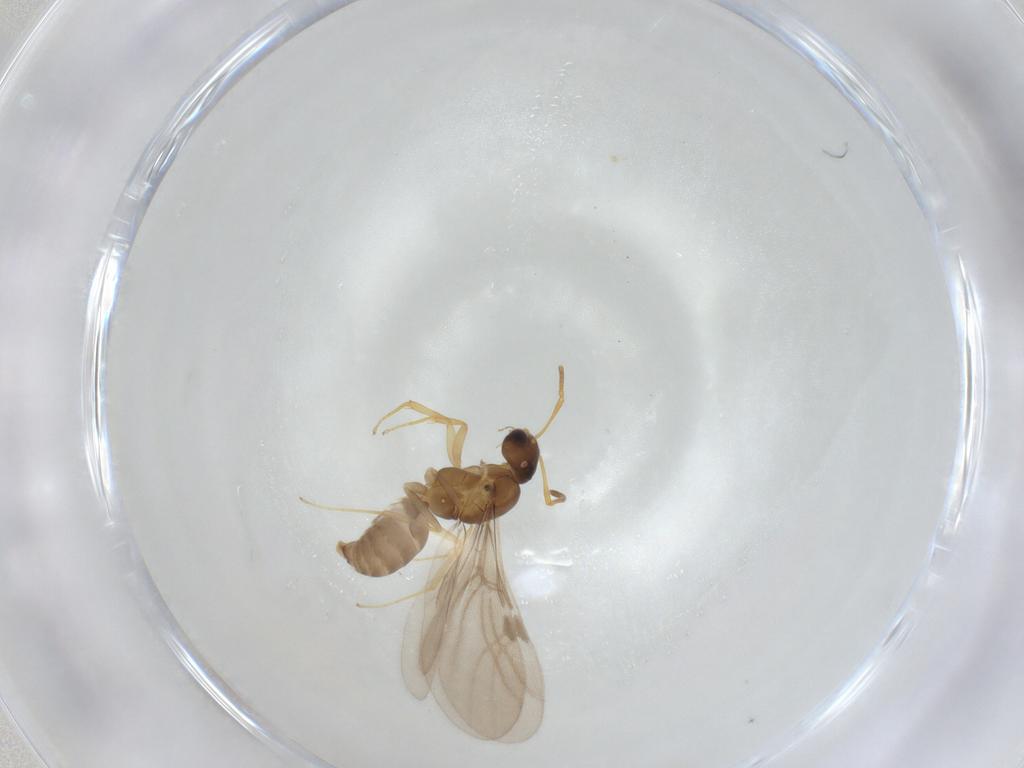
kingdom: Animalia
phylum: Arthropoda
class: Insecta
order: Hymenoptera
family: Formicidae
